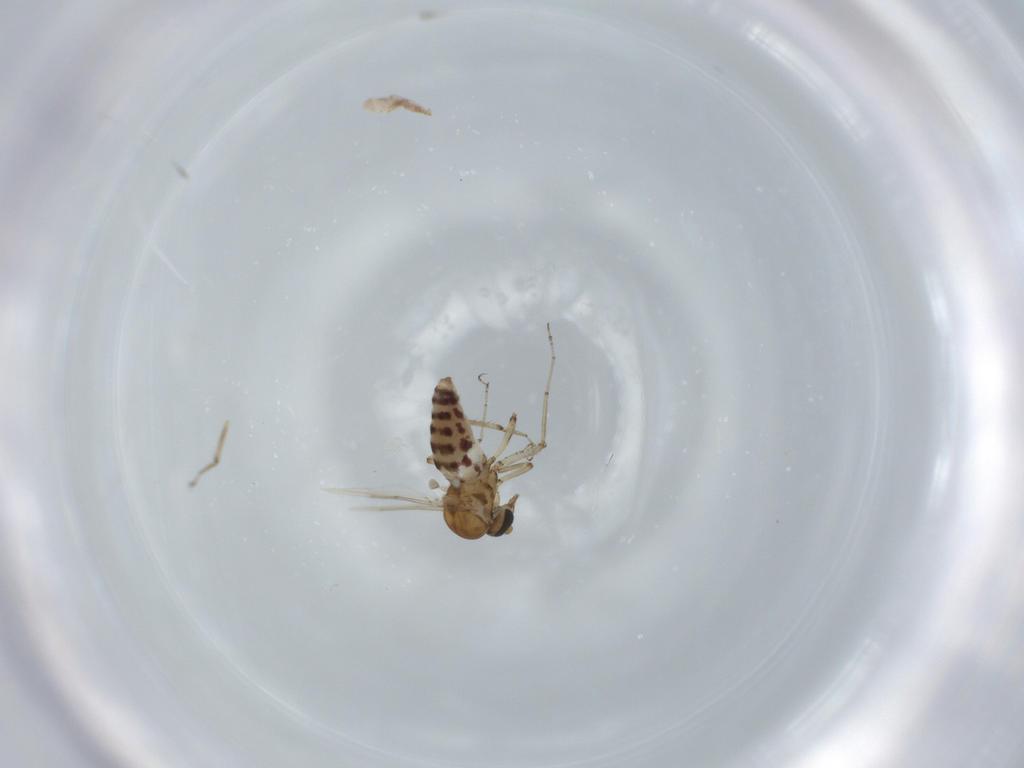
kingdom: Animalia
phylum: Arthropoda
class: Insecta
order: Diptera
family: Ceratopogonidae
